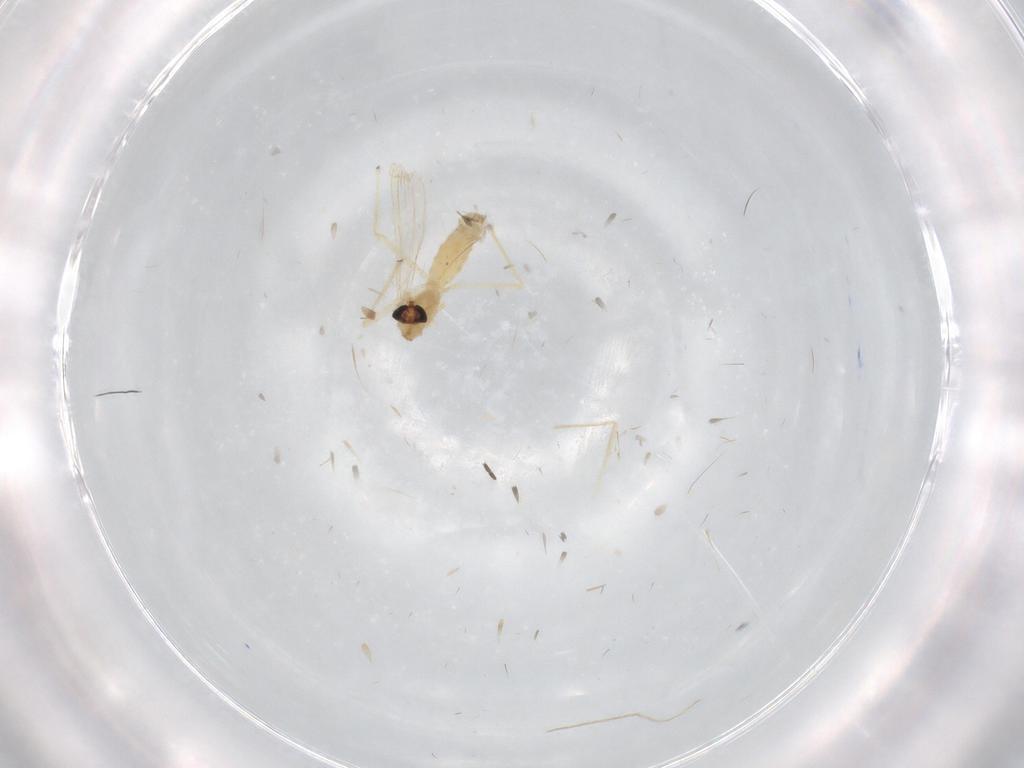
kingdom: Animalia
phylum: Arthropoda
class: Insecta
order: Diptera
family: Chironomidae
